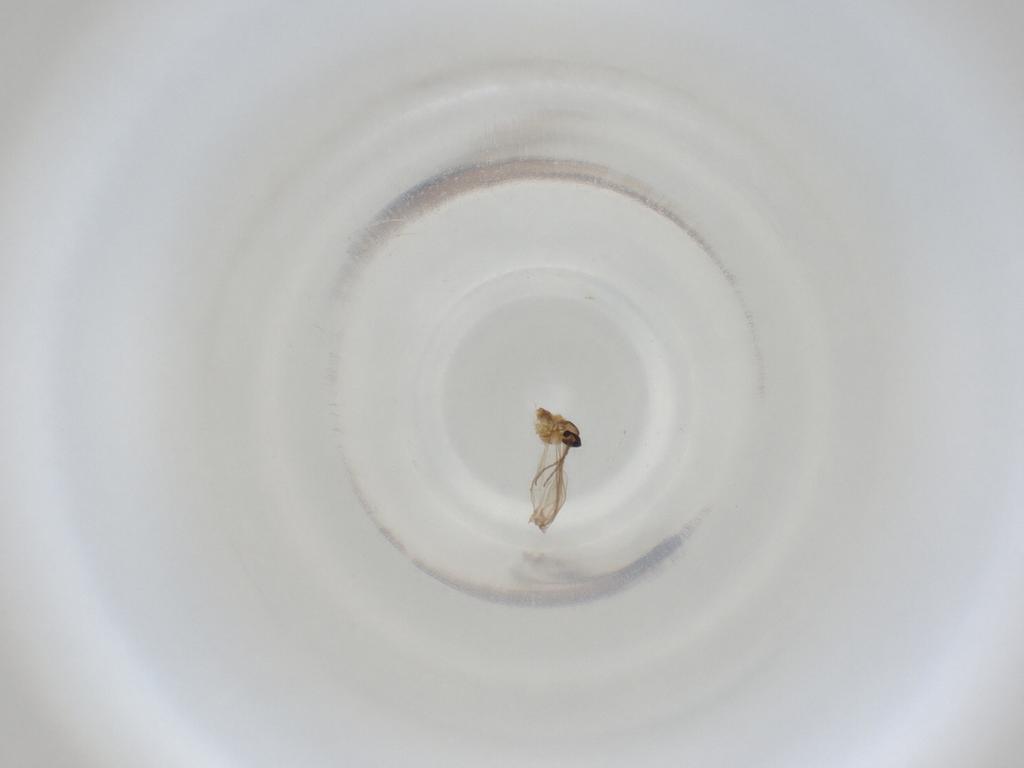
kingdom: Animalia
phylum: Arthropoda
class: Insecta
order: Diptera
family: Cecidomyiidae
